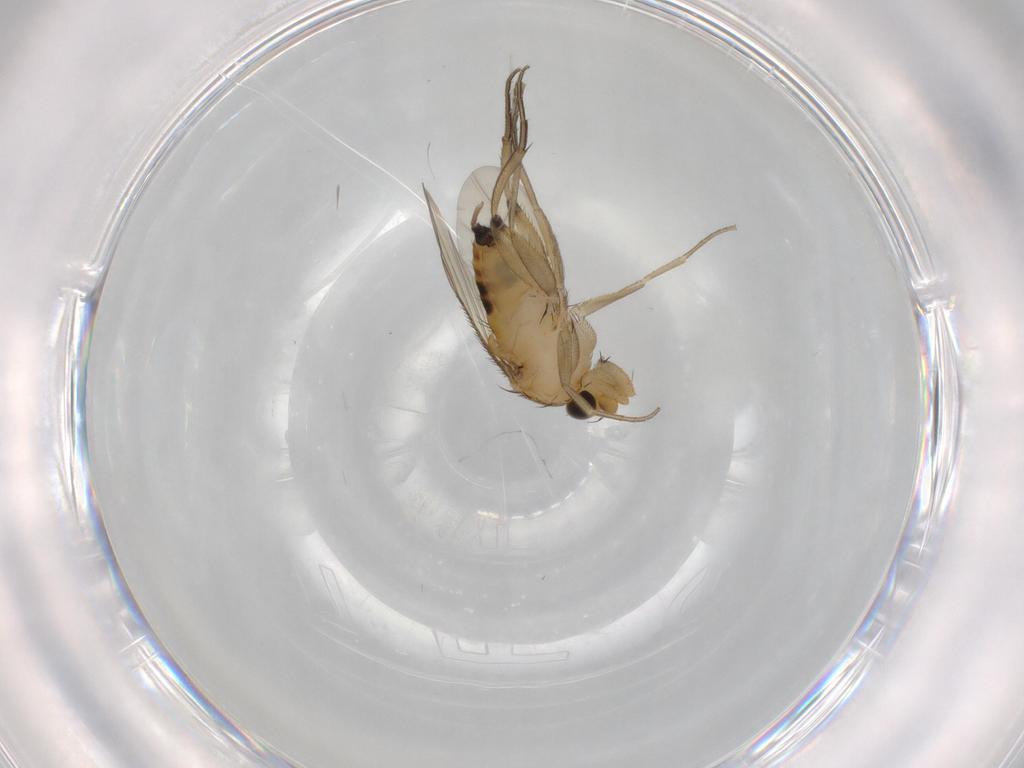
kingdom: Animalia
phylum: Arthropoda
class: Insecta
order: Diptera
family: Phoridae
